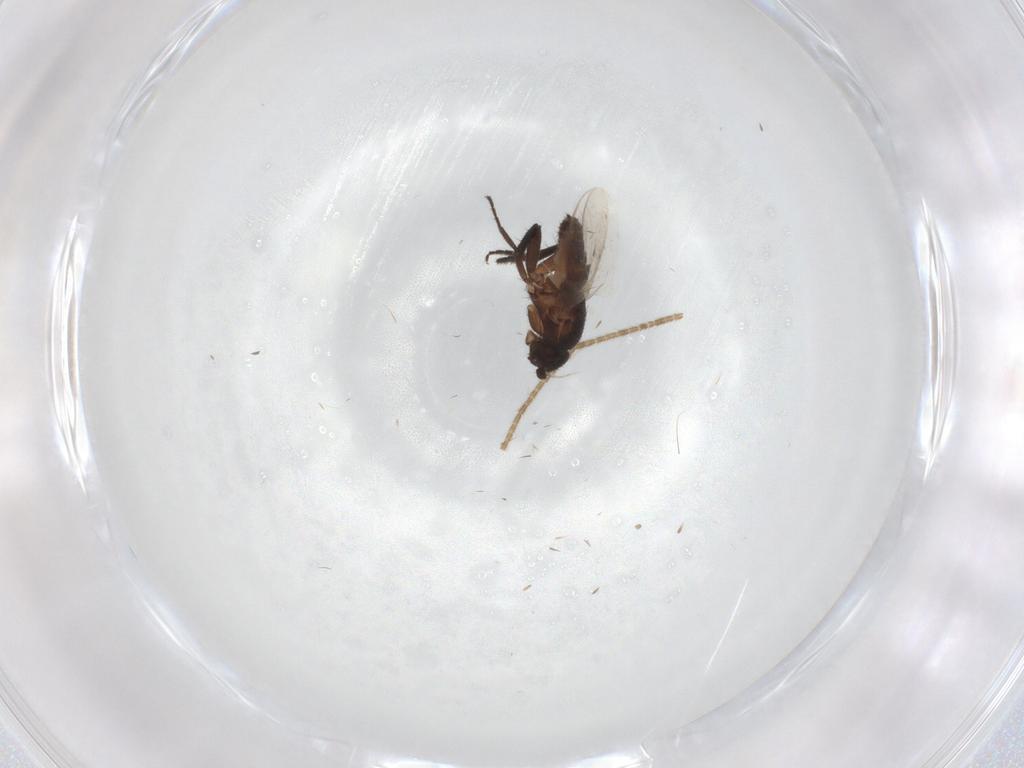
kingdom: Animalia
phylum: Arthropoda
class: Insecta
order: Diptera
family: Sphaeroceridae
